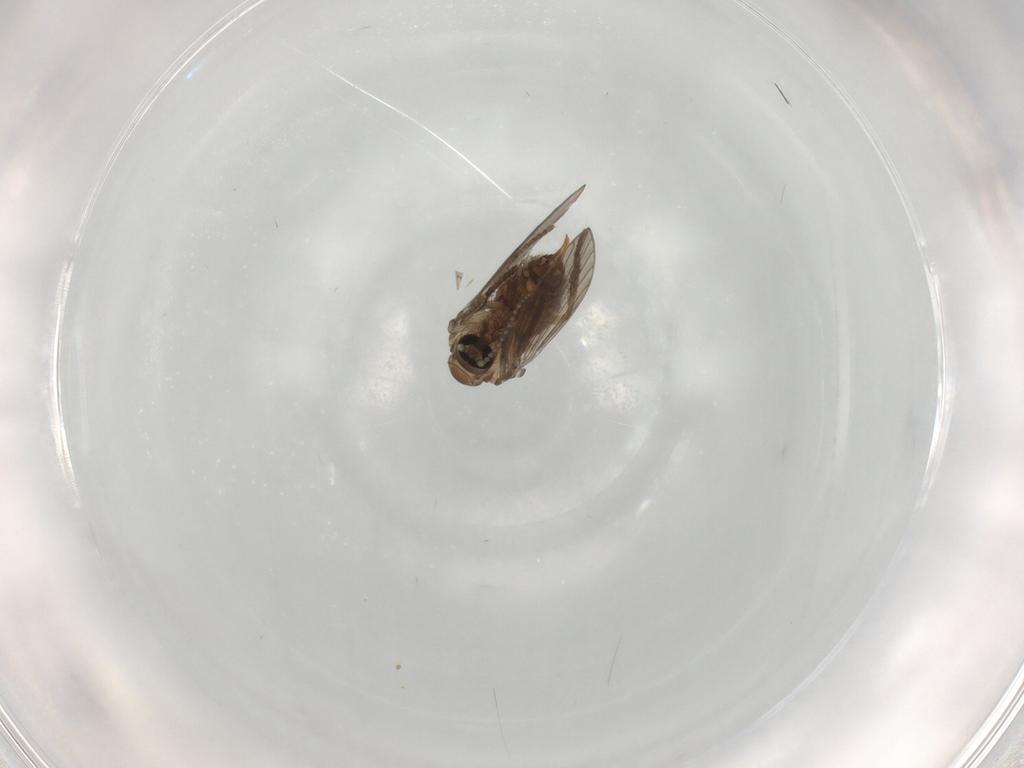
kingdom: Animalia
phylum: Arthropoda
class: Insecta
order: Diptera
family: Psychodidae
